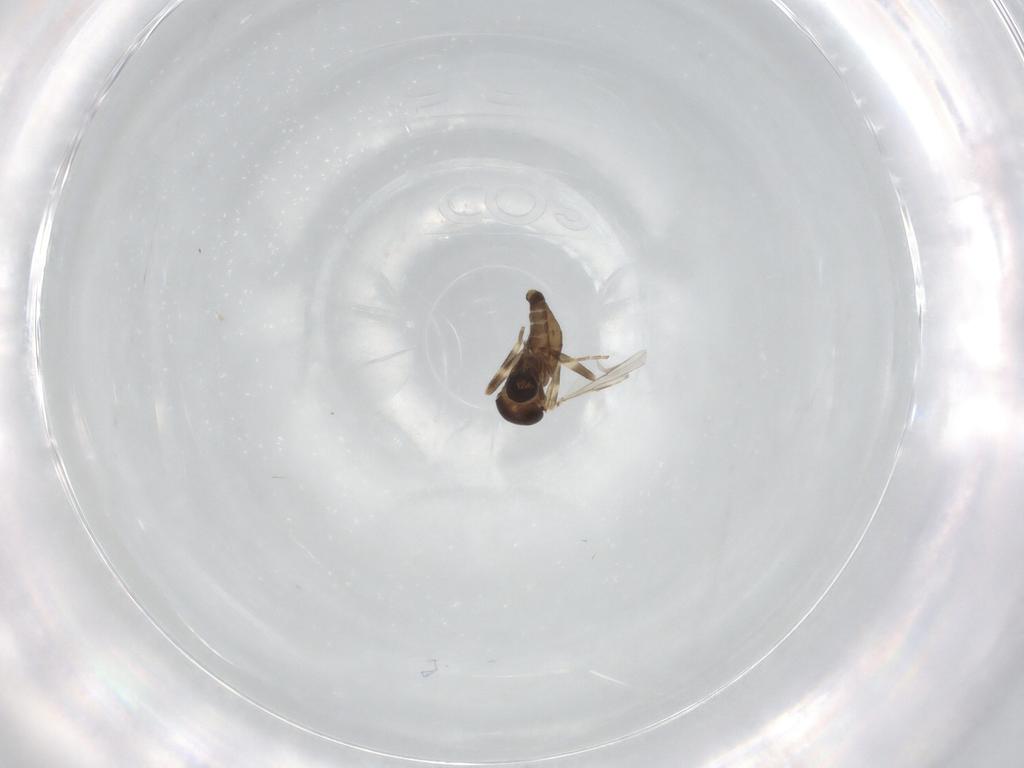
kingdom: Animalia
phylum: Arthropoda
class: Insecta
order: Diptera
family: Ceratopogonidae
